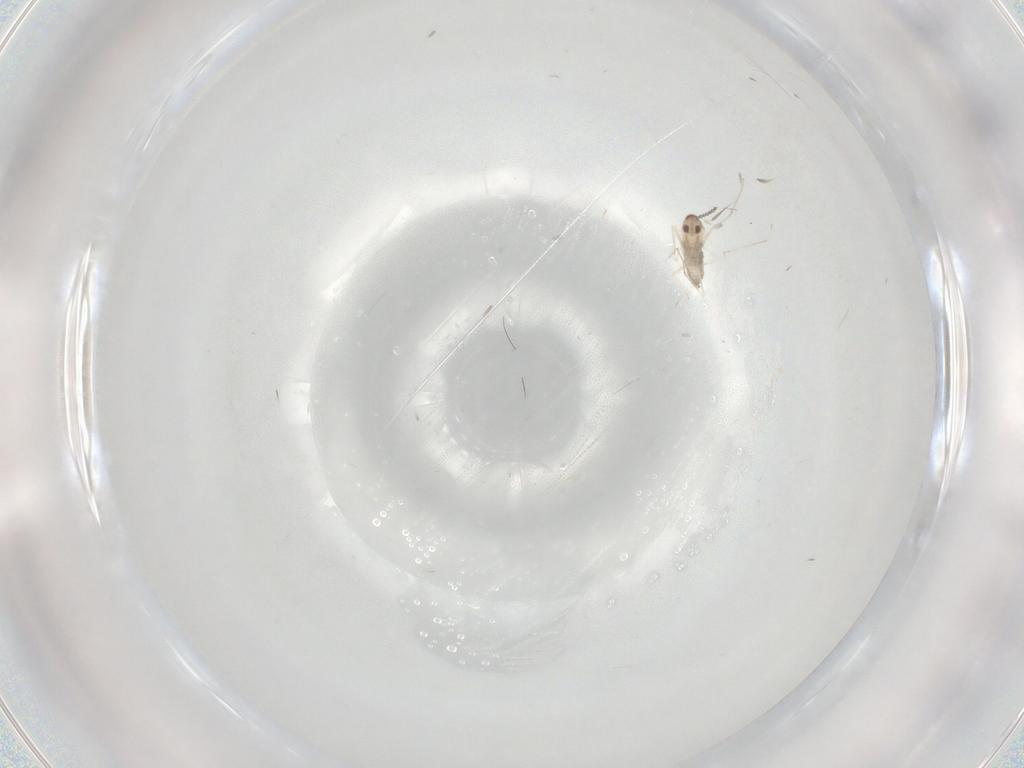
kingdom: Animalia
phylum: Arthropoda
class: Insecta
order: Diptera
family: Cecidomyiidae
